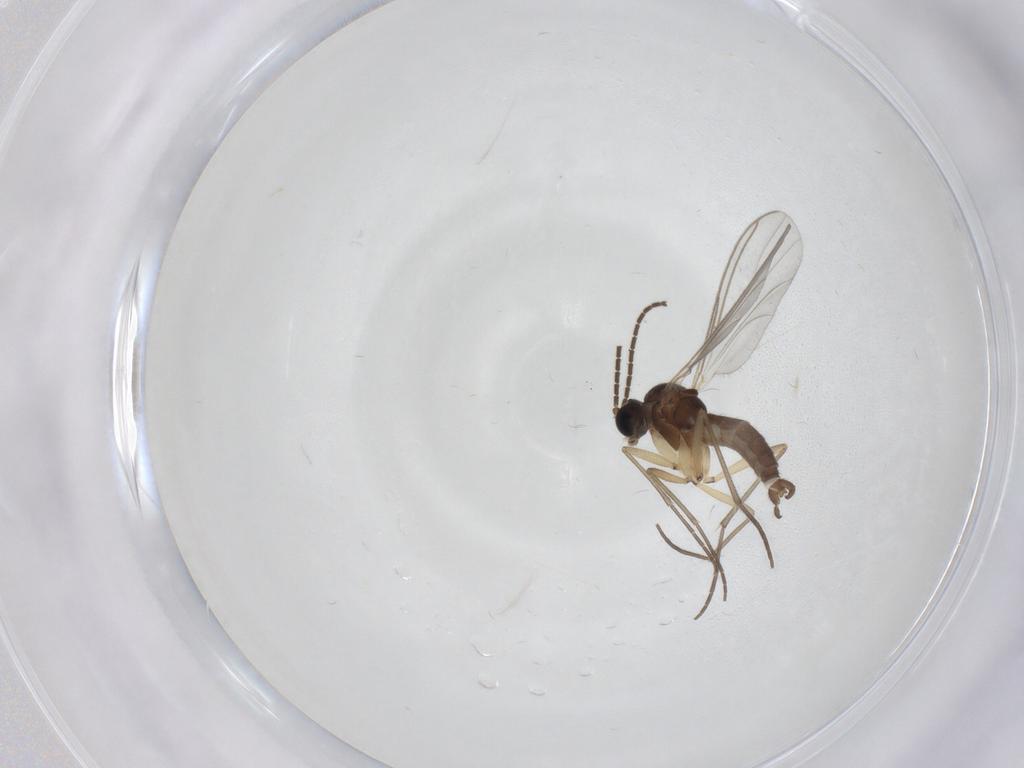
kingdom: Animalia
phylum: Arthropoda
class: Insecta
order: Diptera
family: Sciaridae
